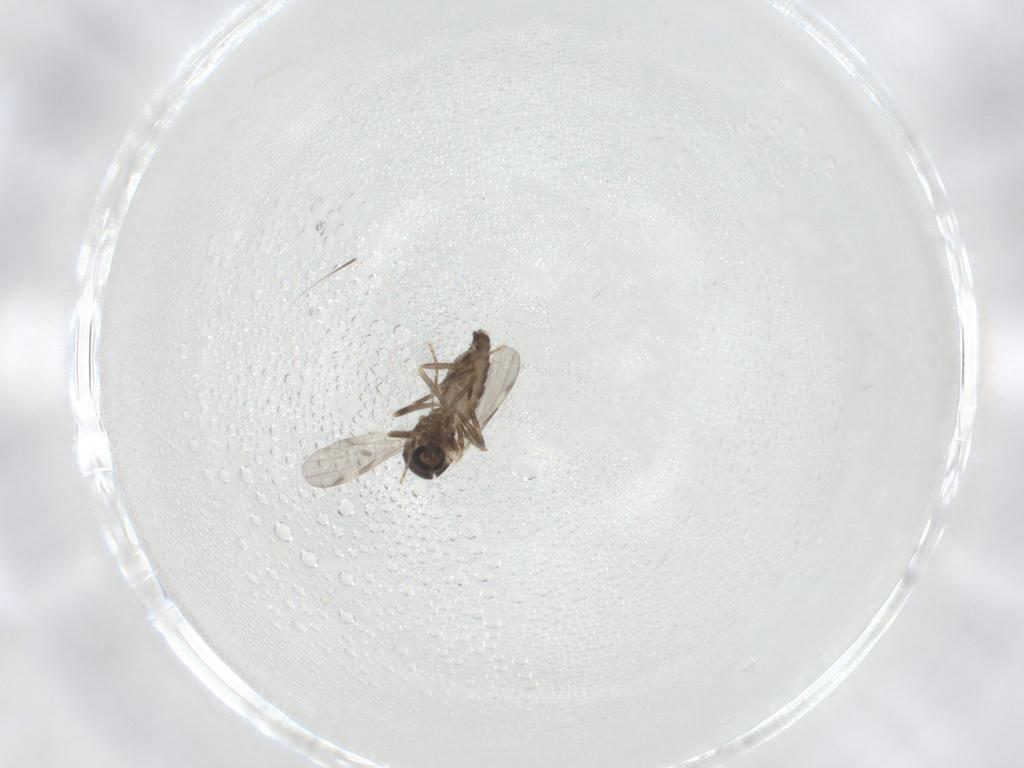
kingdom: Animalia
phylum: Arthropoda
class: Insecta
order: Diptera
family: Ceratopogonidae
